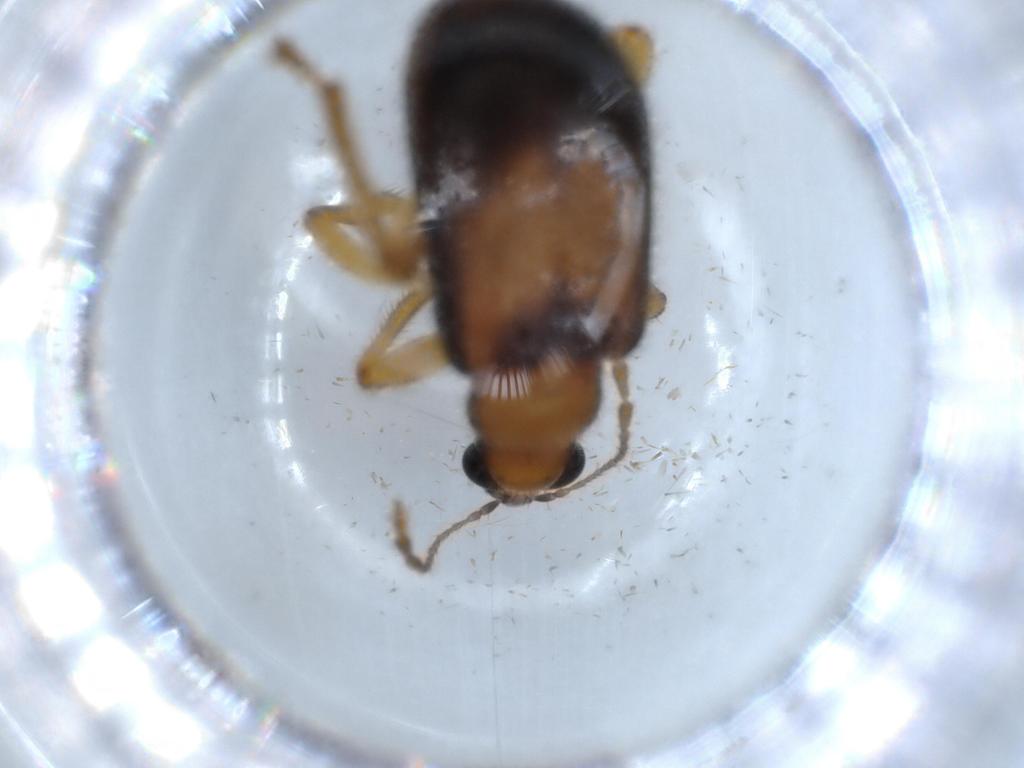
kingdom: Animalia
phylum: Arthropoda
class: Insecta
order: Coleoptera
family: Attelabidae
